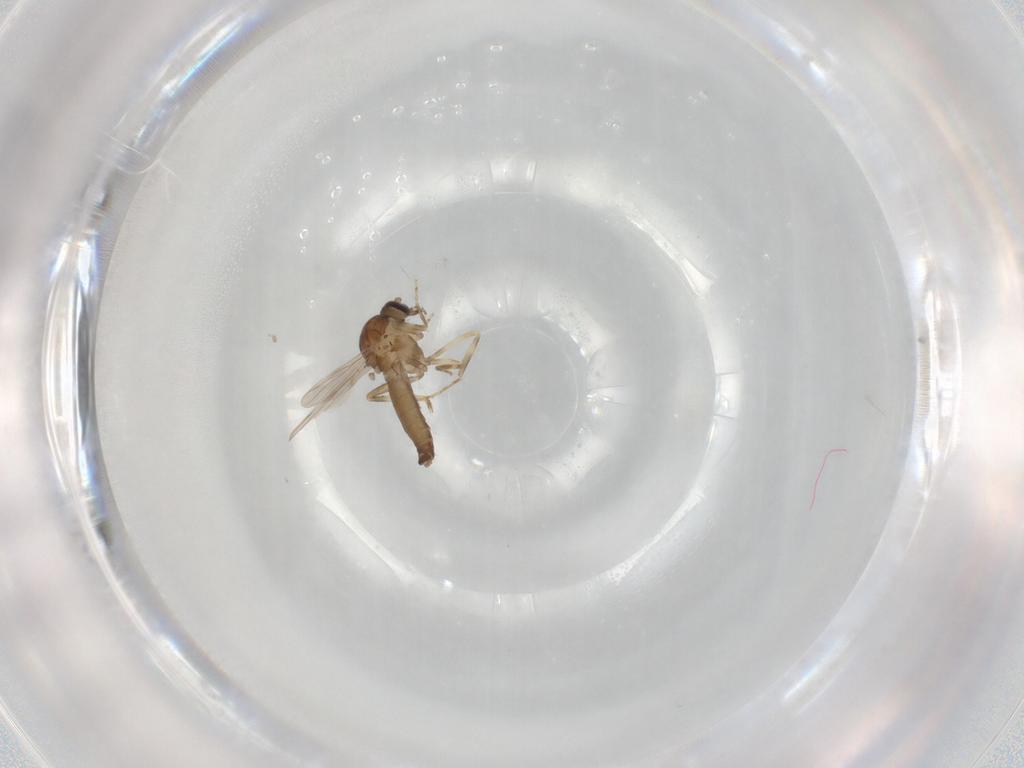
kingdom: Animalia
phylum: Arthropoda
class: Insecta
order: Diptera
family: Ceratopogonidae
